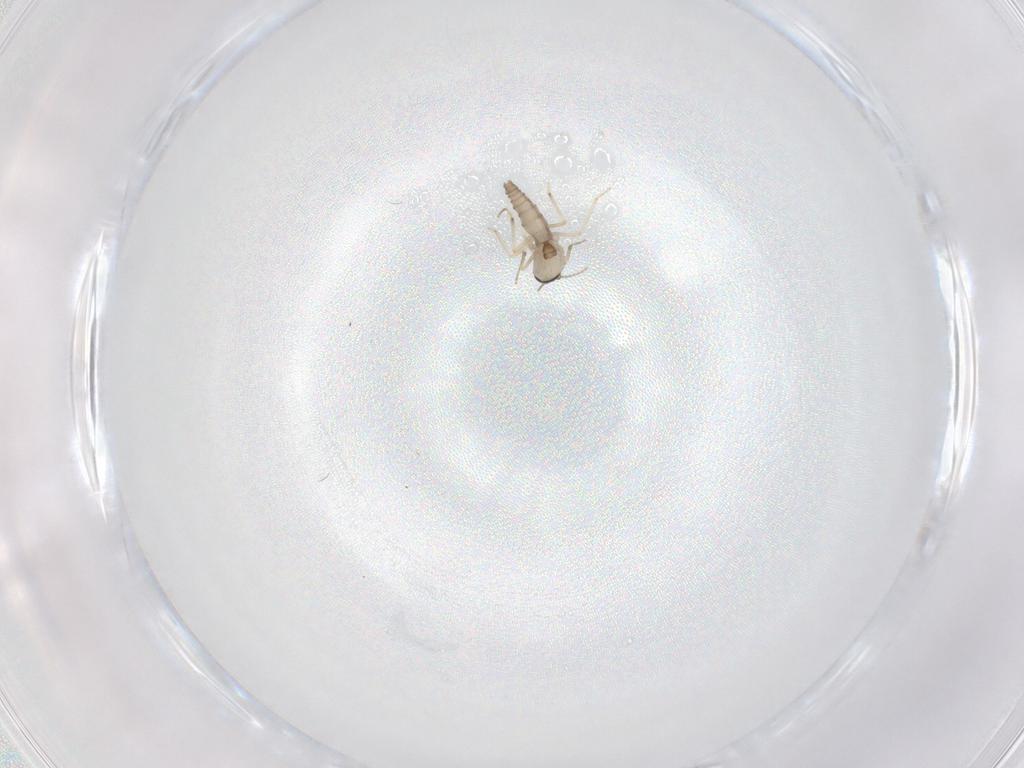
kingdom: Animalia
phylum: Arthropoda
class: Insecta
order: Diptera
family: Ceratopogonidae
